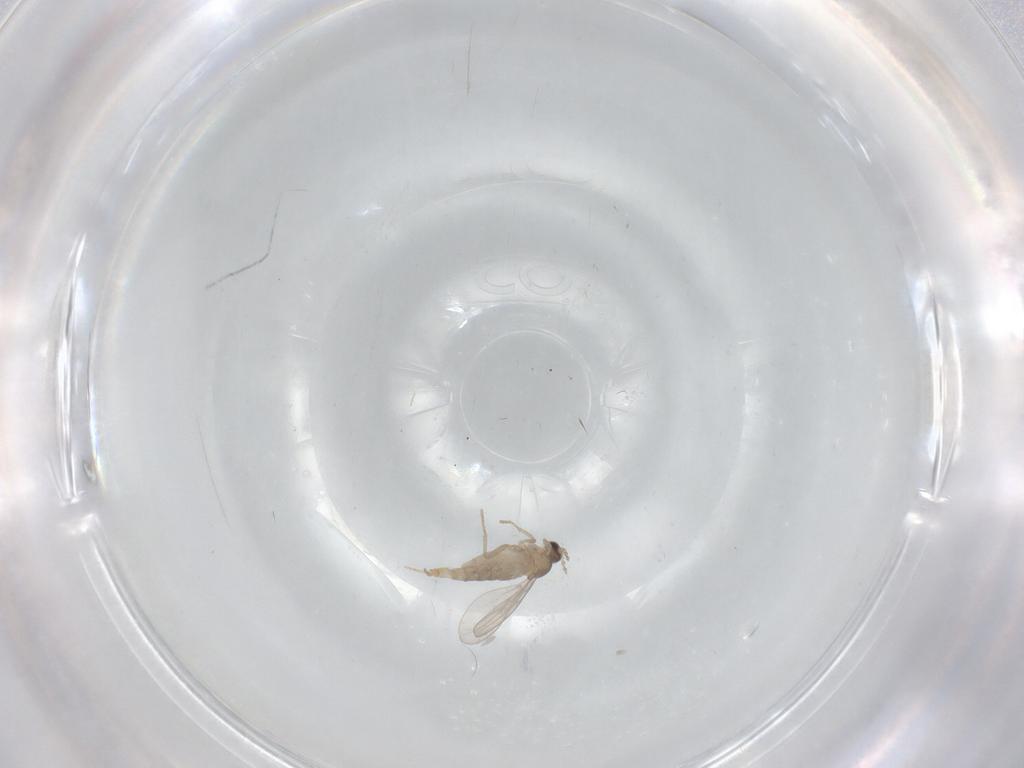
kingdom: Animalia
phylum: Arthropoda
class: Insecta
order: Diptera
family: Cecidomyiidae
